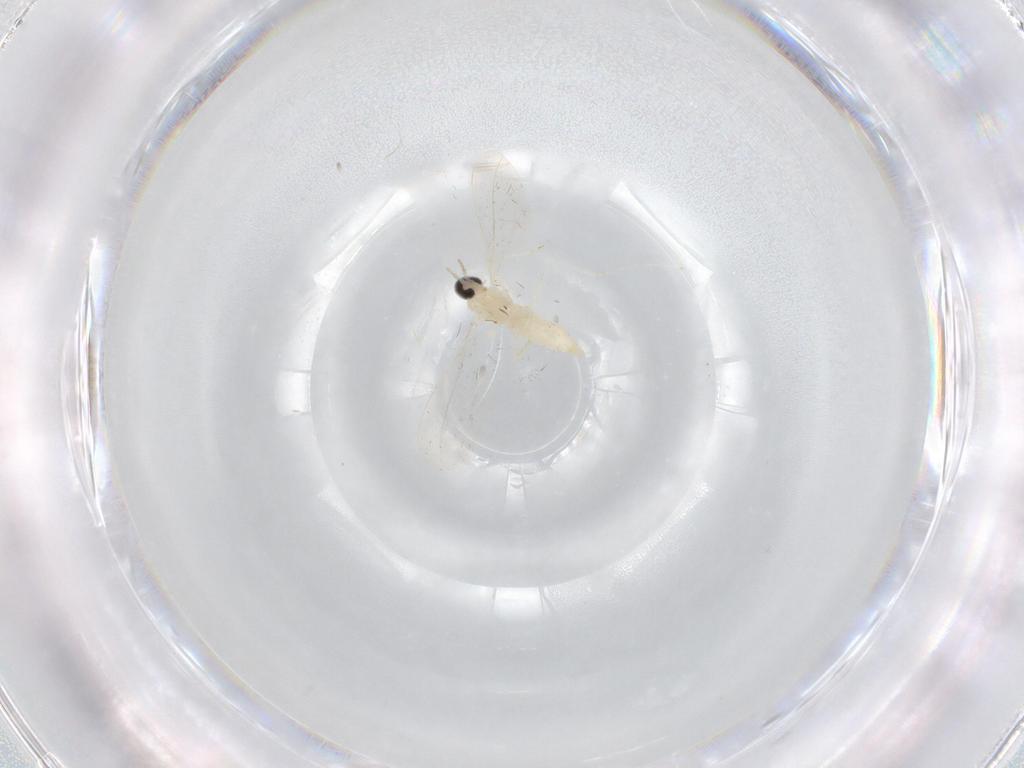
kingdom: Animalia
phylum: Arthropoda
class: Insecta
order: Diptera
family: Cecidomyiidae
